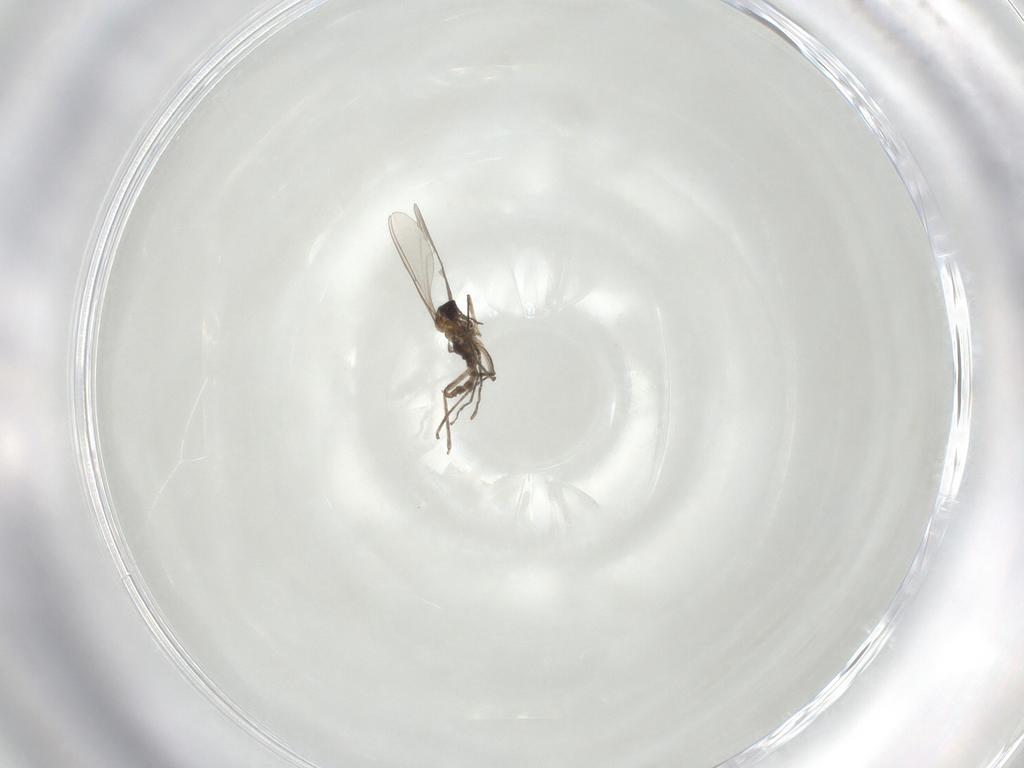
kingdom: Animalia
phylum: Arthropoda
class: Insecta
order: Diptera
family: Cecidomyiidae
